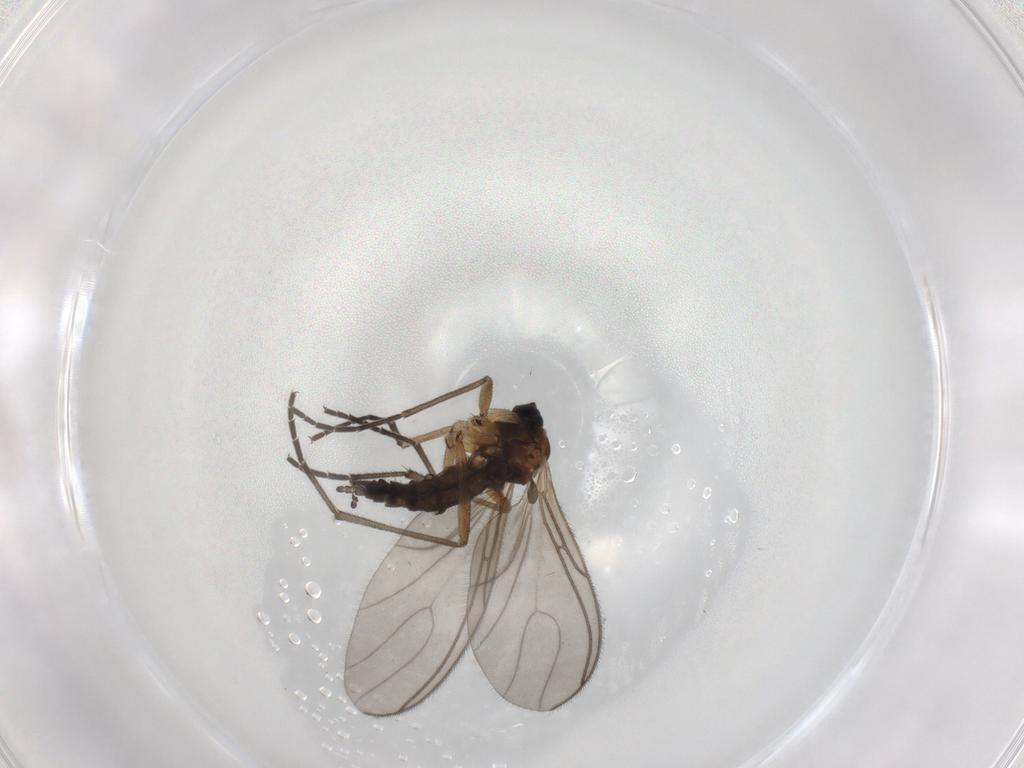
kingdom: Animalia
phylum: Arthropoda
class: Insecta
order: Diptera
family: Sciaridae
